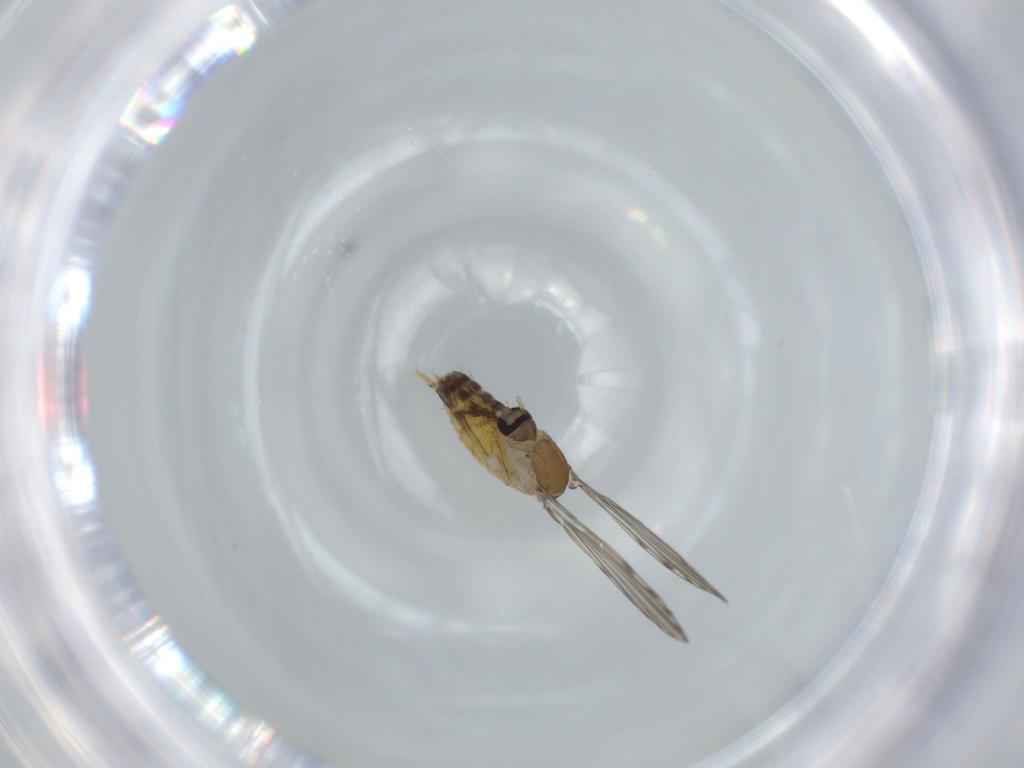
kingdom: Animalia
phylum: Arthropoda
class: Insecta
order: Diptera
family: Psychodidae
